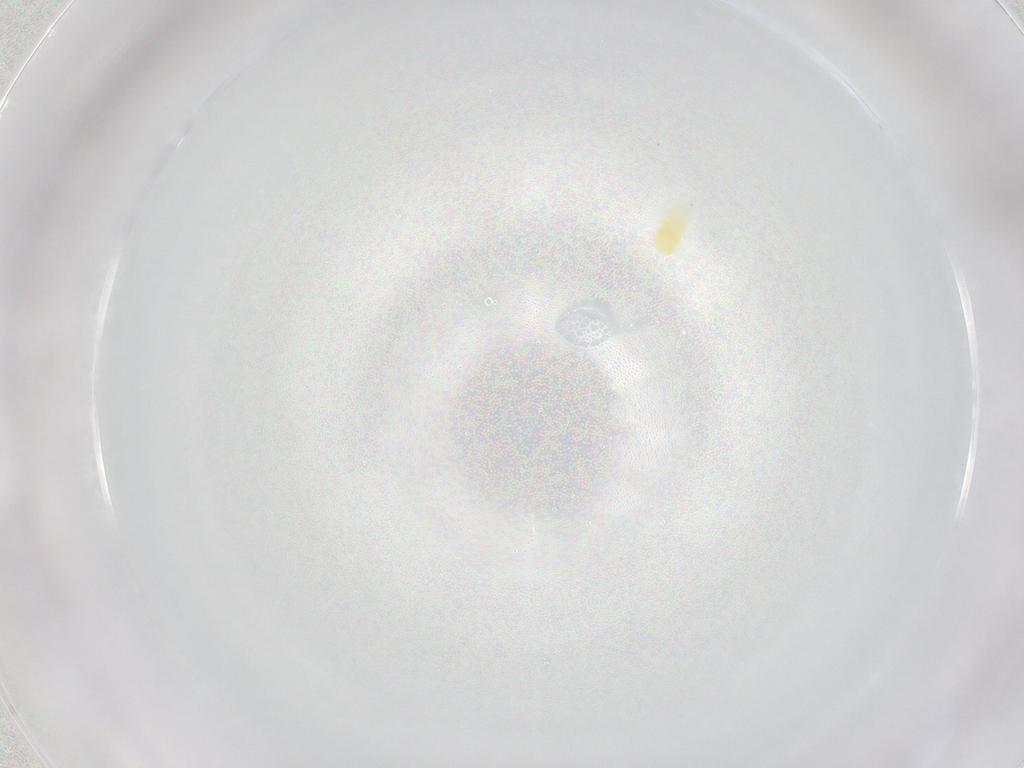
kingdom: Animalia
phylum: Arthropoda
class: Arachnida
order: Trombidiformes
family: Rhagidiidae
